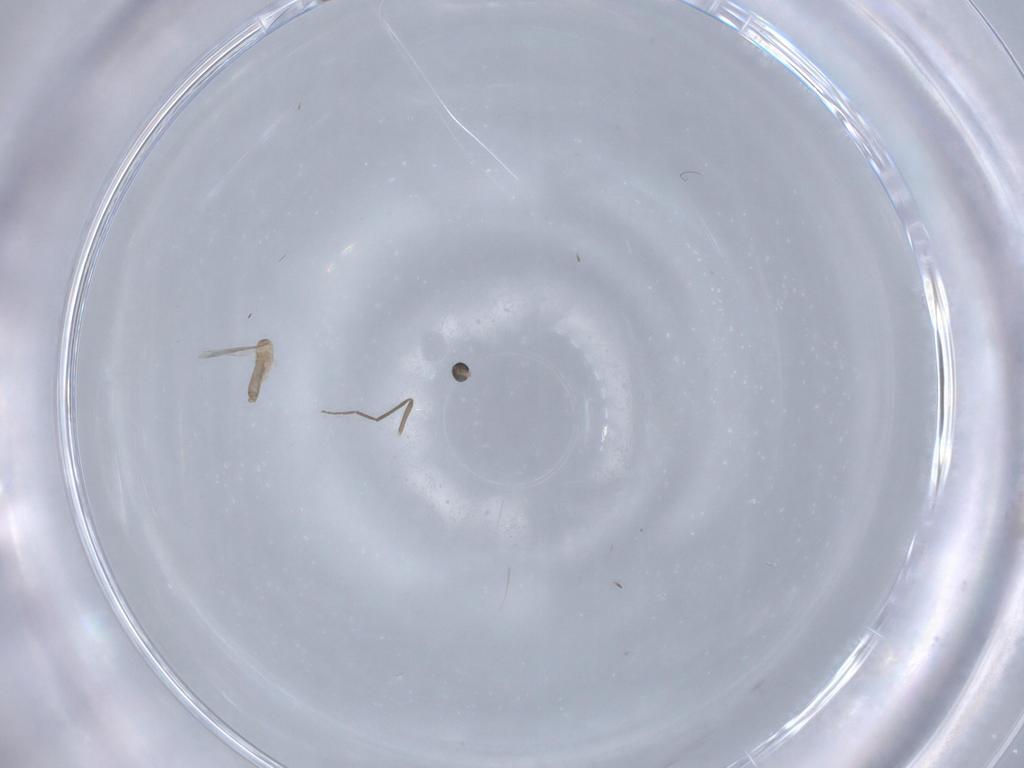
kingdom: Animalia
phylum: Arthropoda
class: Insecta
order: Diptera
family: Chironomidae
